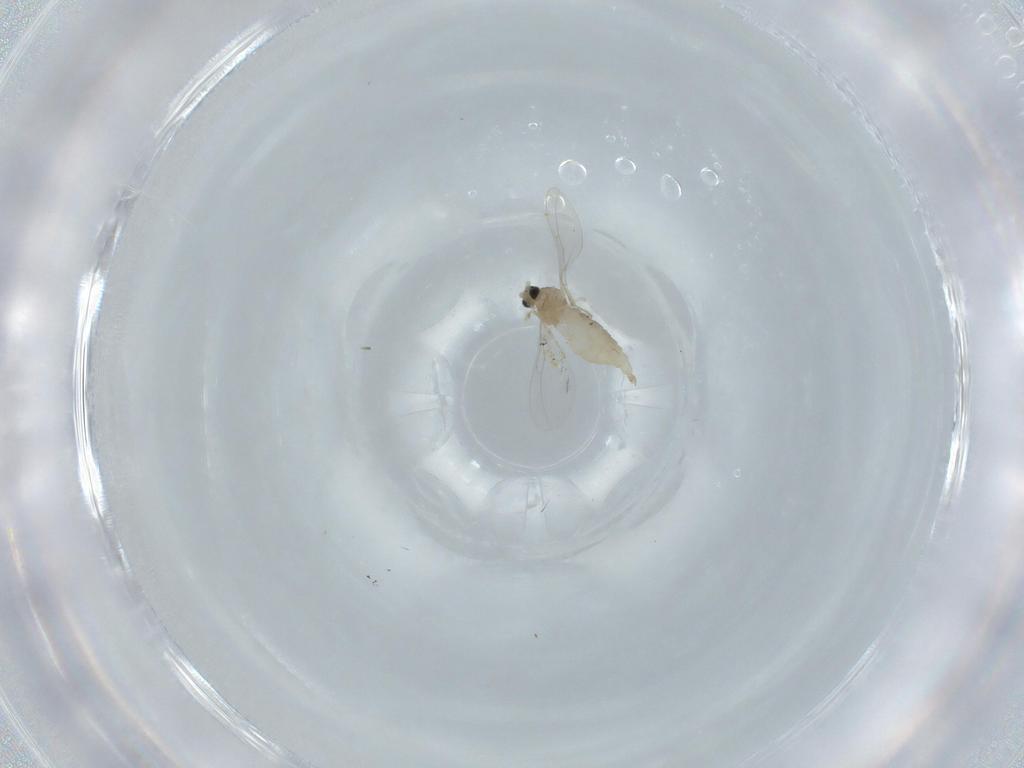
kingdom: Animalia
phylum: Arthropoda
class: Insecta
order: Diptera
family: Cecidomyiidae
